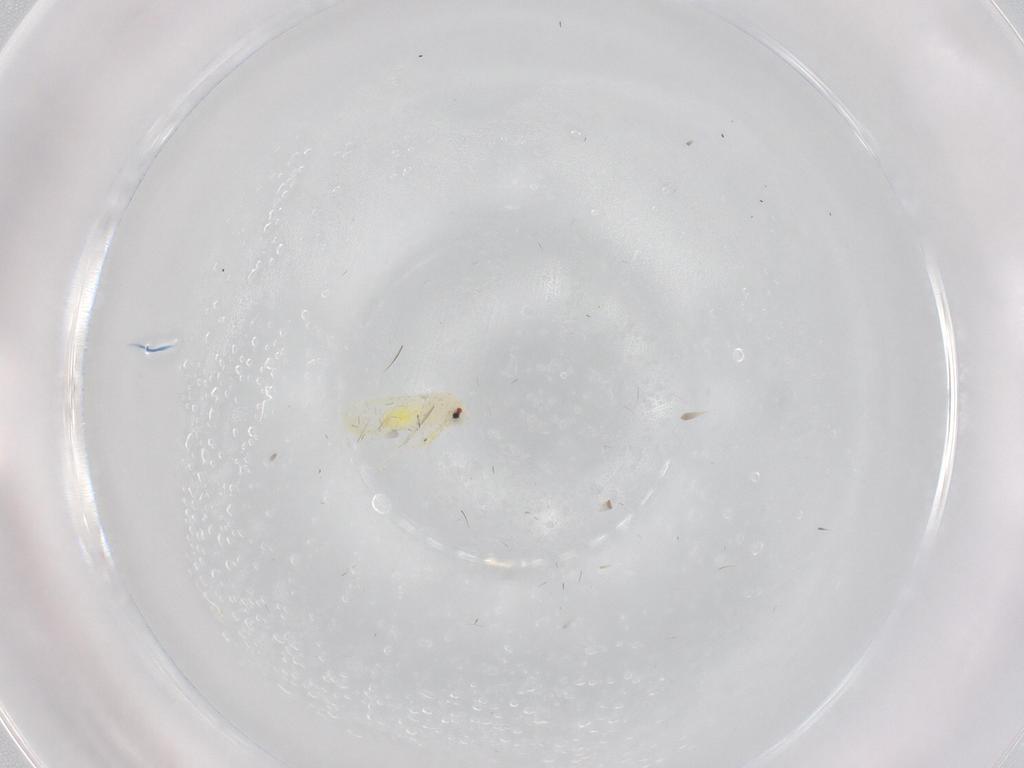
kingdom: Animalia
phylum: Arthropoda
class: Insecta
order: Hemiptera
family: Aleyrodidae
